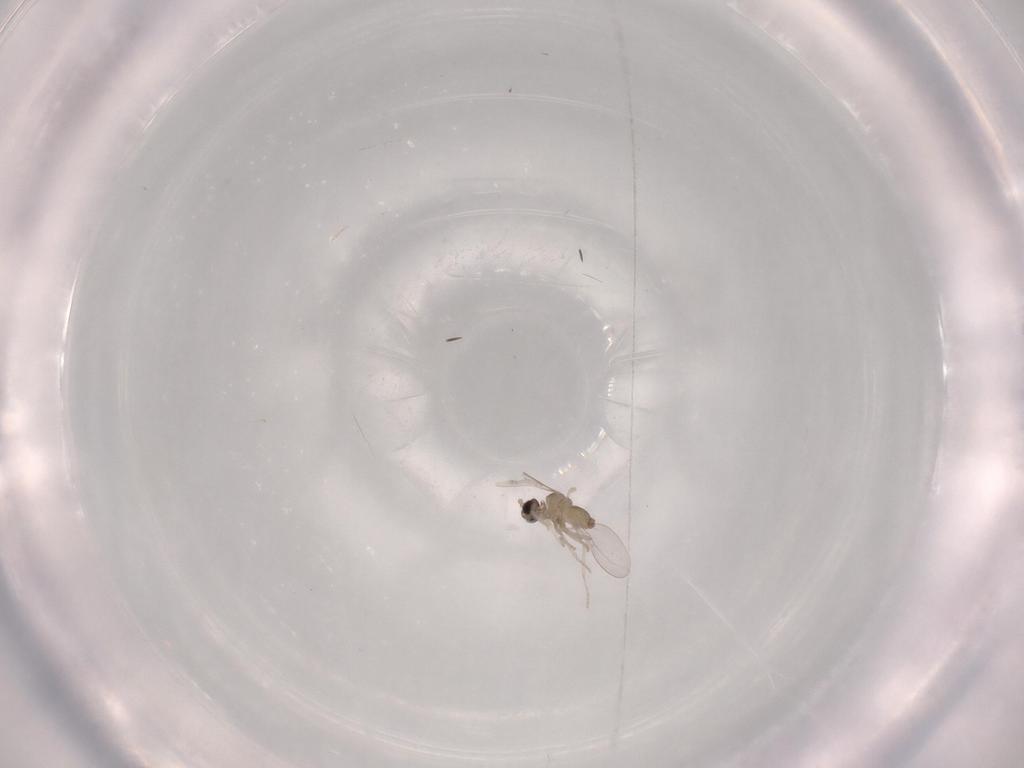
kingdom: Animalia
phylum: Arthropoda
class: Insecta
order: Diptera
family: Cecidomyiidae
